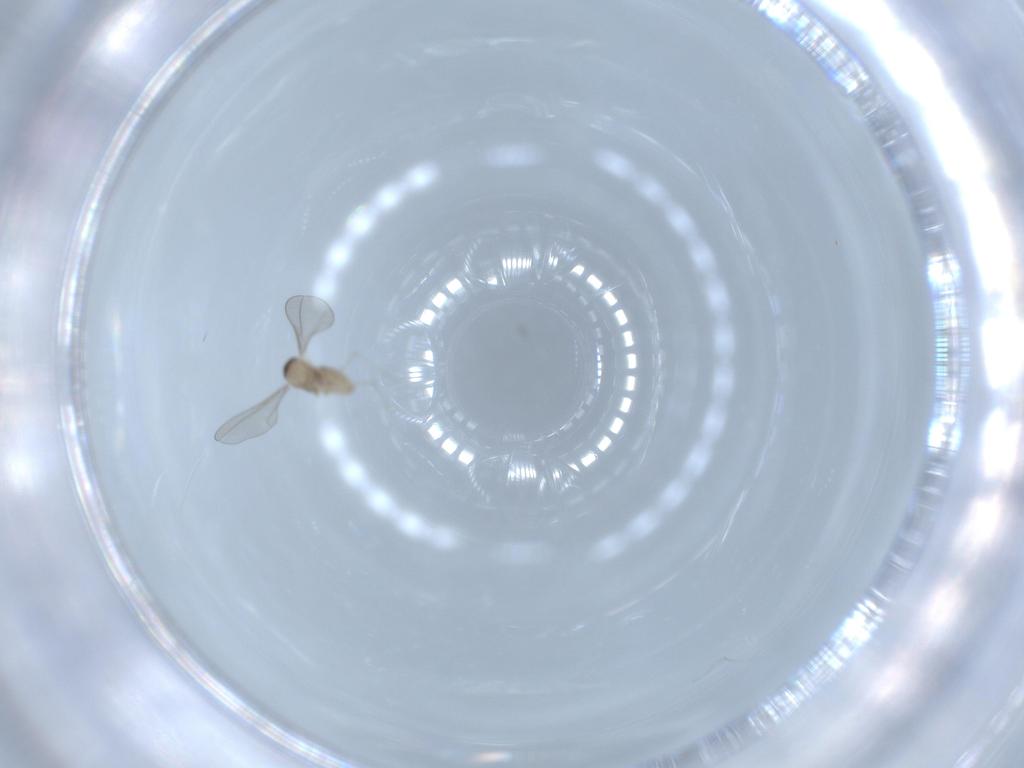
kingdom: Animalia
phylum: Arthropoda
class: Insecta
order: Diptera
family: Cecidomyiidae
